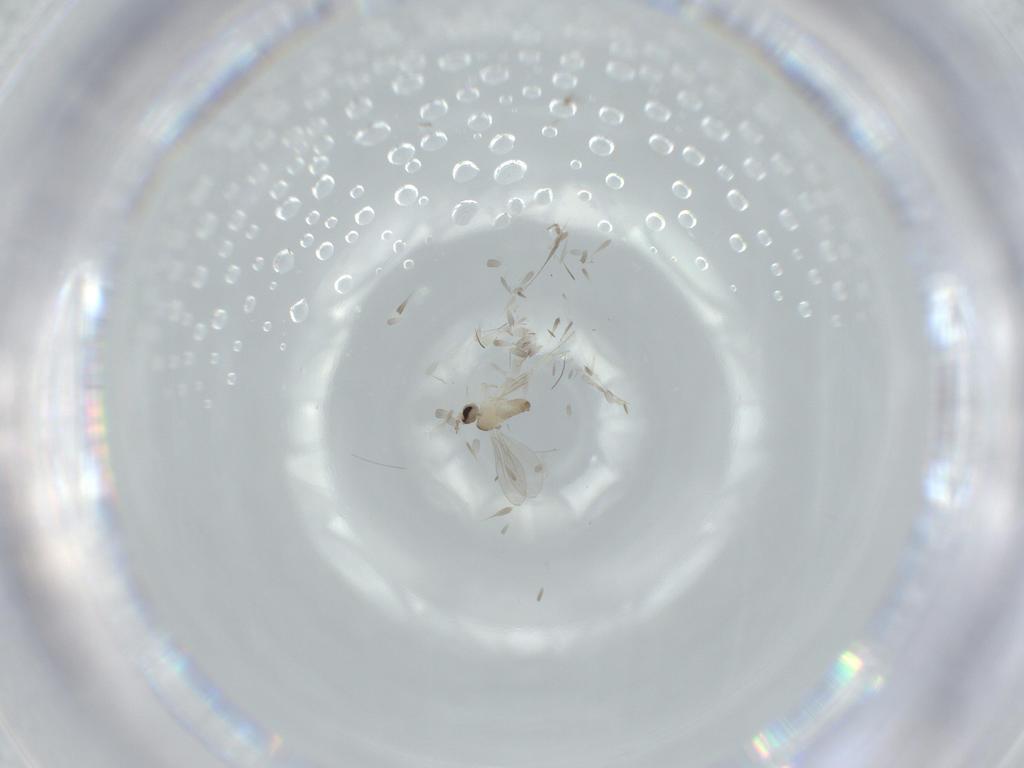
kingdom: Animalia
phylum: Arthropoda
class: Insecta
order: Diptera
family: Cecidomyiidae
